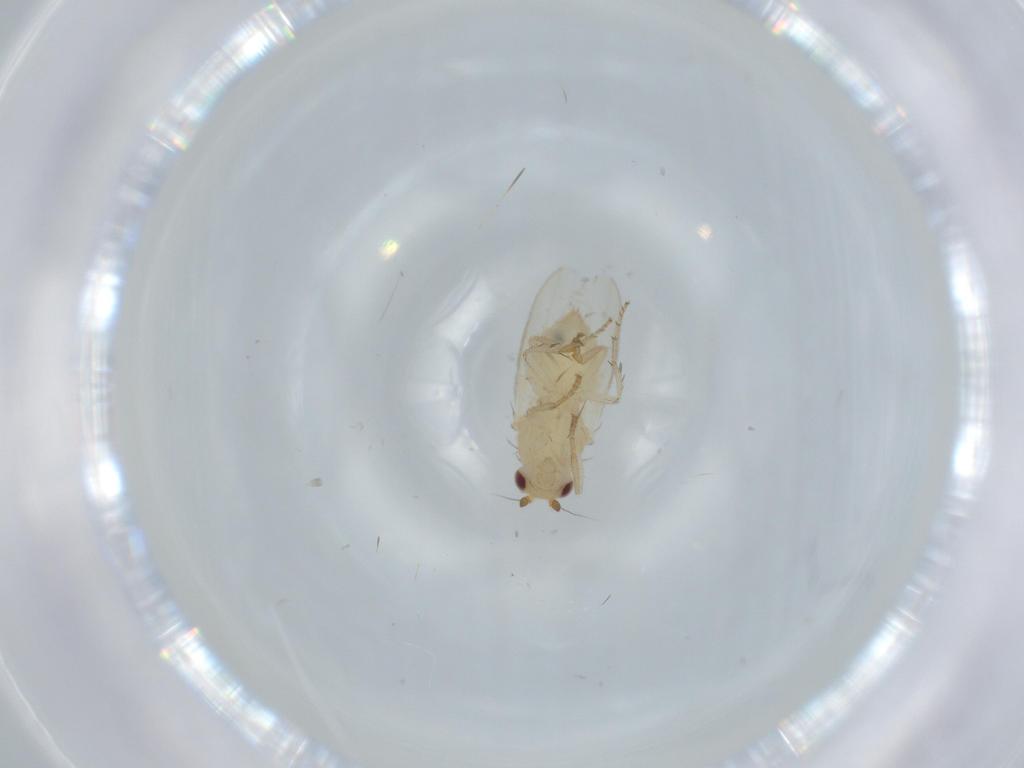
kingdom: Animalia
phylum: Arthropoda
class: Insecta
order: Diptera
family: Sphaeroceridae
